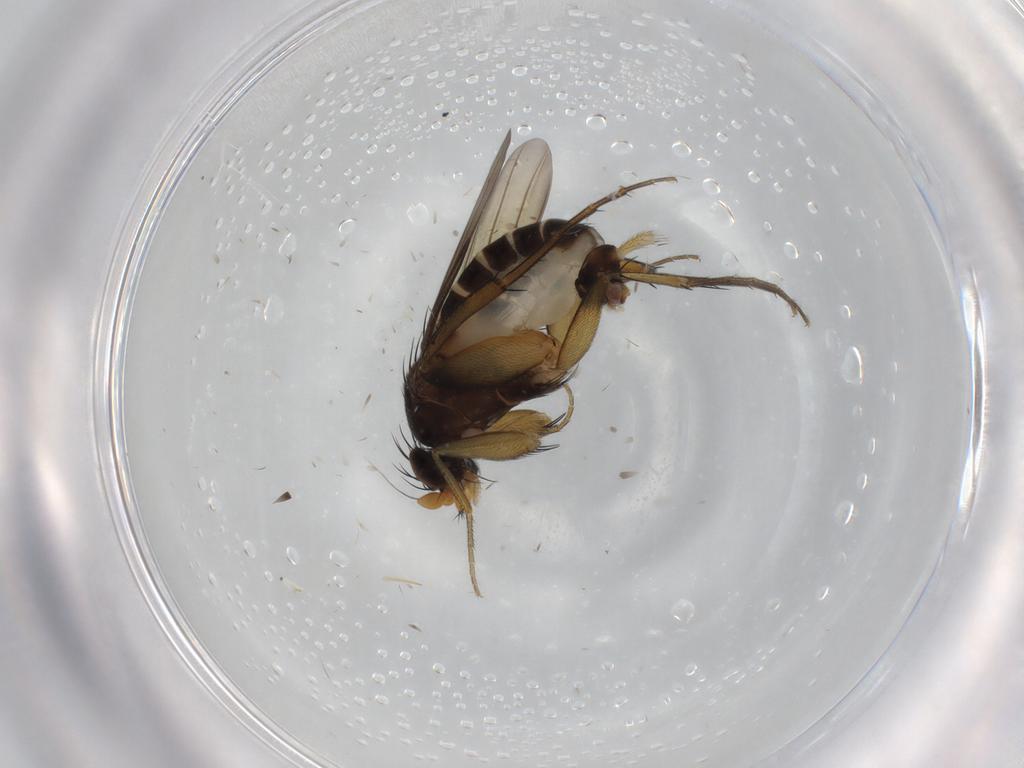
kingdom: Animalia
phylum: Arthropoda
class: Insecta
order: Diptera
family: Phoridae
